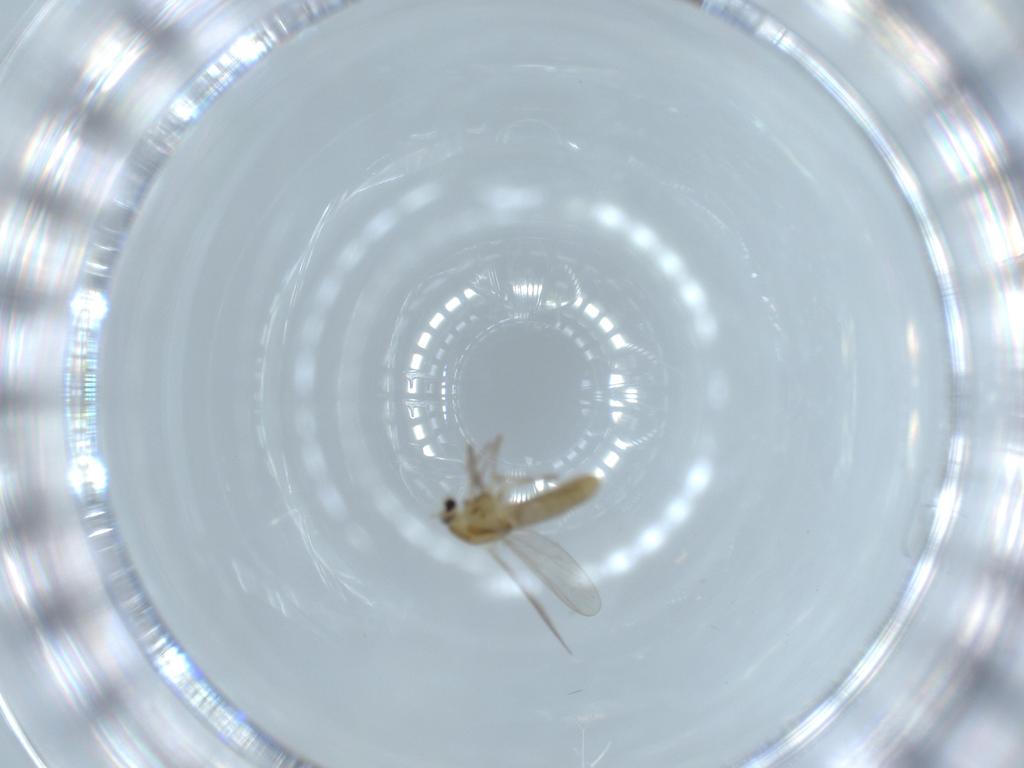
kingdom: Animalia
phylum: Arthropoda
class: Insecta
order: Diptera
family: Chironomidae
